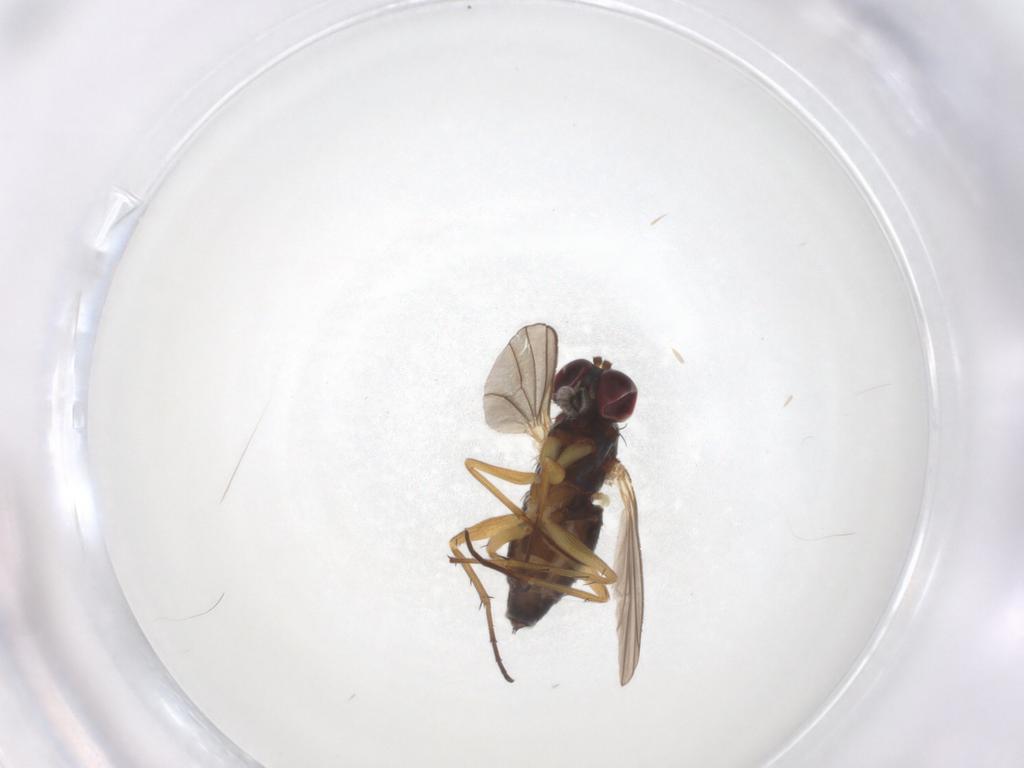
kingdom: Animalia
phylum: Arthropoda
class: Insecta
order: Diptera
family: Dolichopodidae
